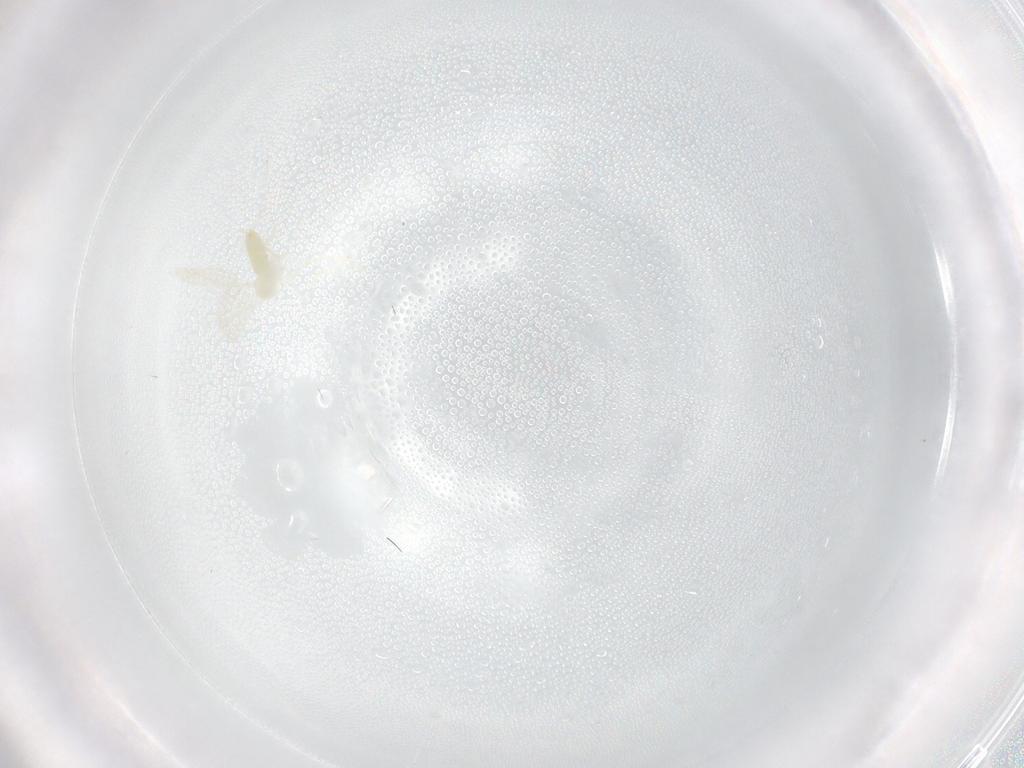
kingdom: Animalia
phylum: Arthropoda
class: Insecta
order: Diptera
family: Cecidomyiidae
